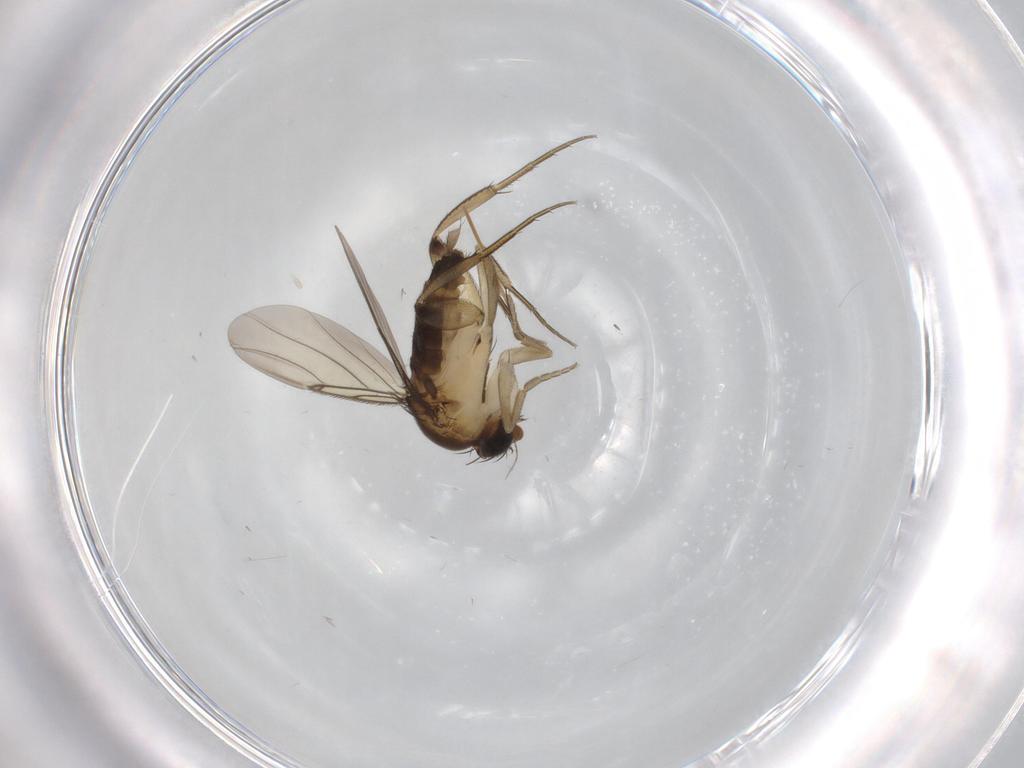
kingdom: Animalia
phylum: Arthropoda
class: Insecta
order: Diptera
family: Phoridae
